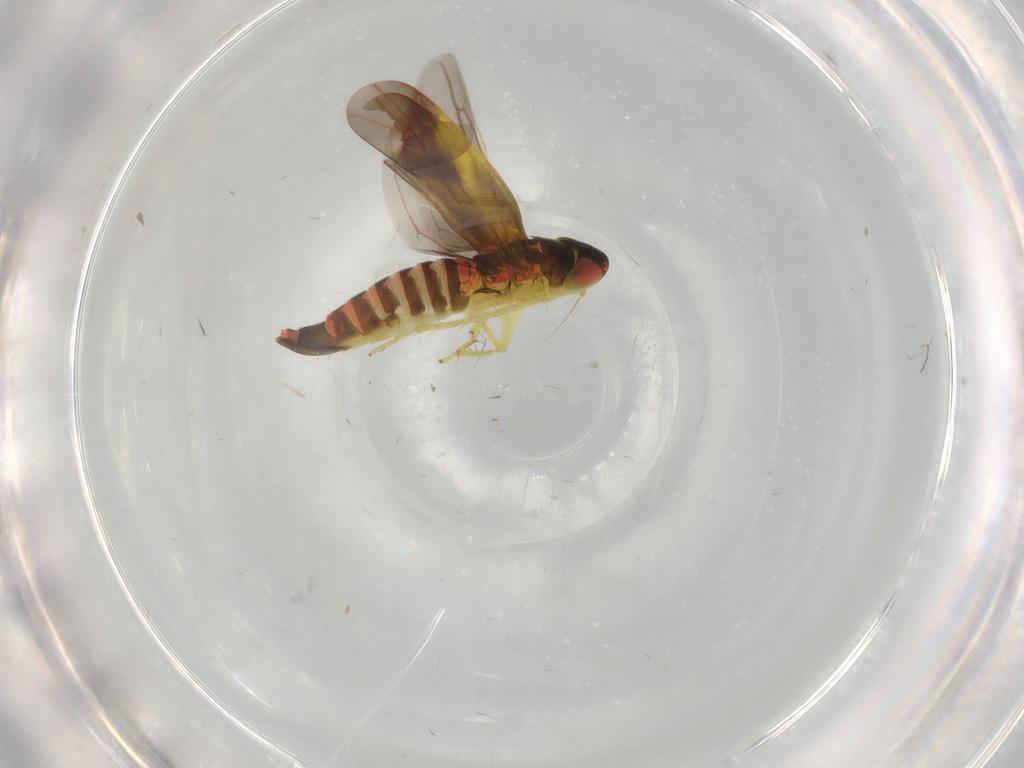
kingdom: Animalia
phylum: Arthropoda
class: Insecta
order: Hemiptera
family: Cicadellidae
